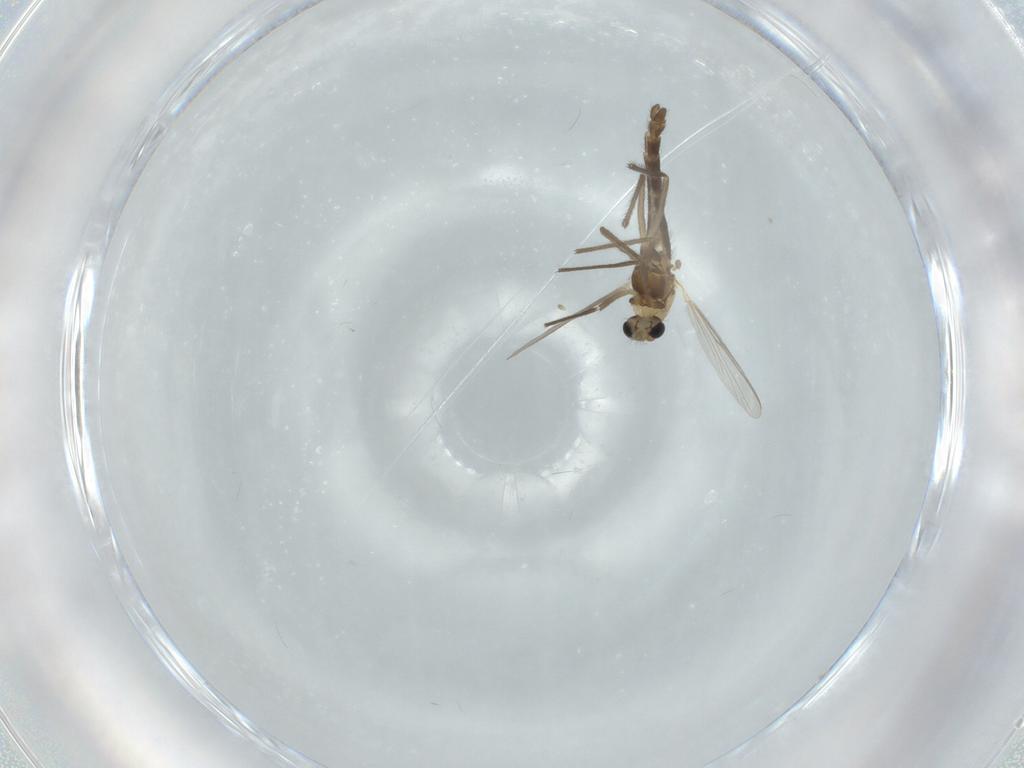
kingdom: Animalia
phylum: Arthropoda
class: Insecta
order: Diptera
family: Chironomidae
